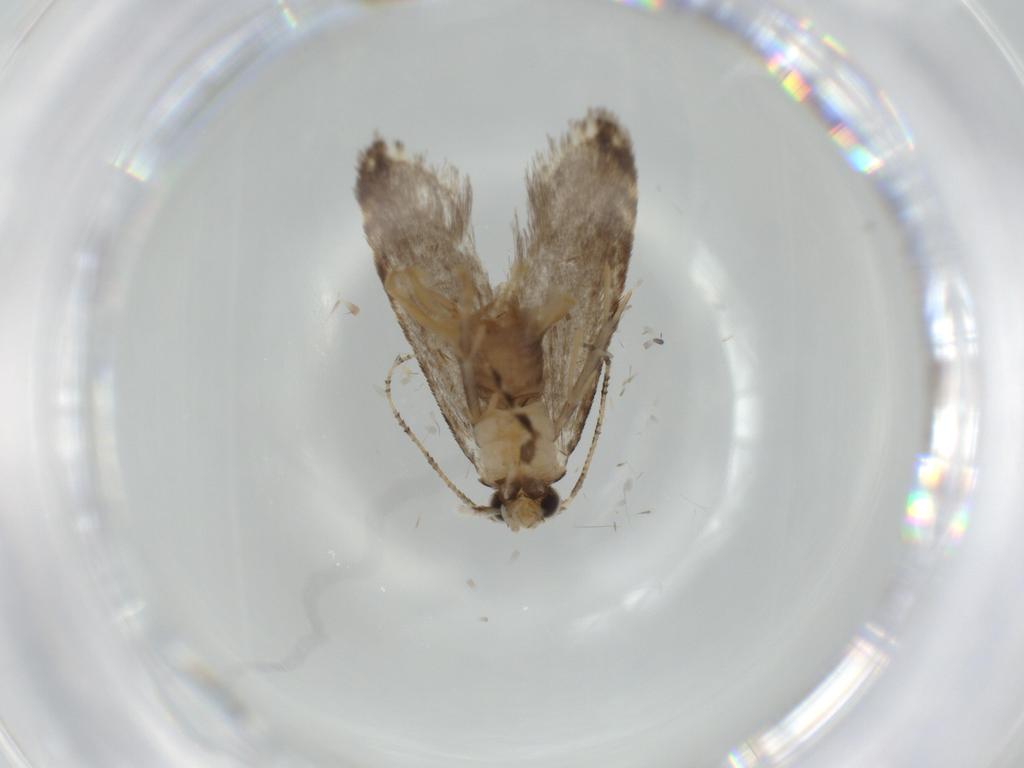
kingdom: Animalia
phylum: Arthropoda
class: Insecta
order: Lepidoptera
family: Tineidae
